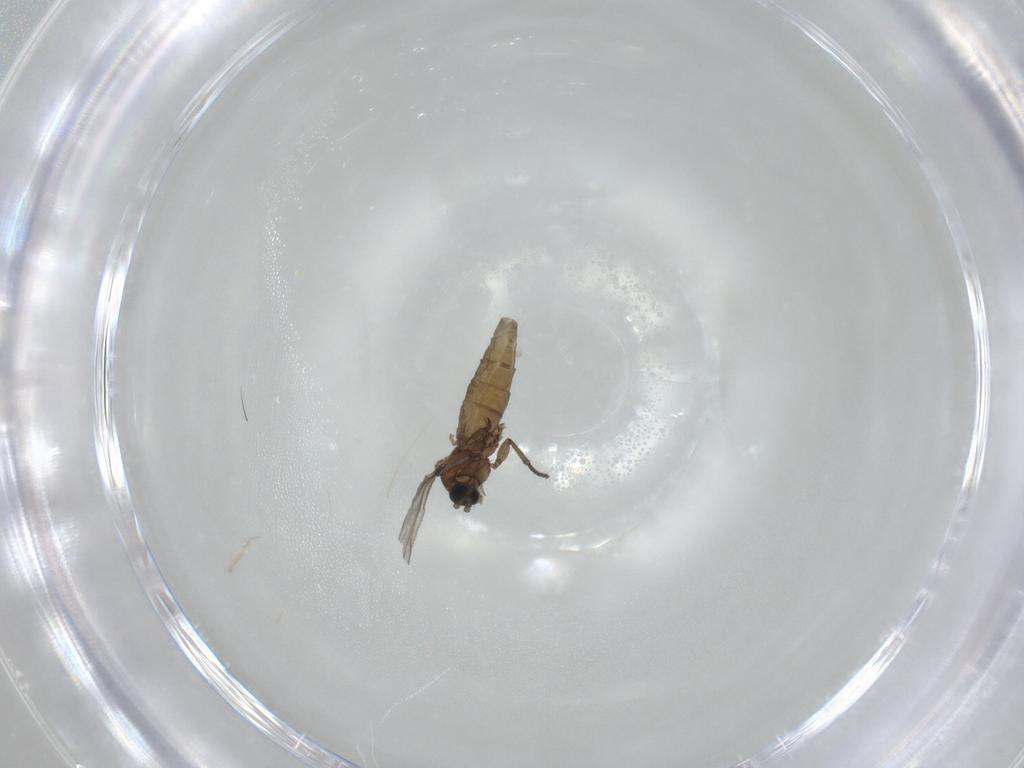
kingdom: Animalia
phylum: Arthropoda
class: Insecta
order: Diptera
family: Sciaridae
